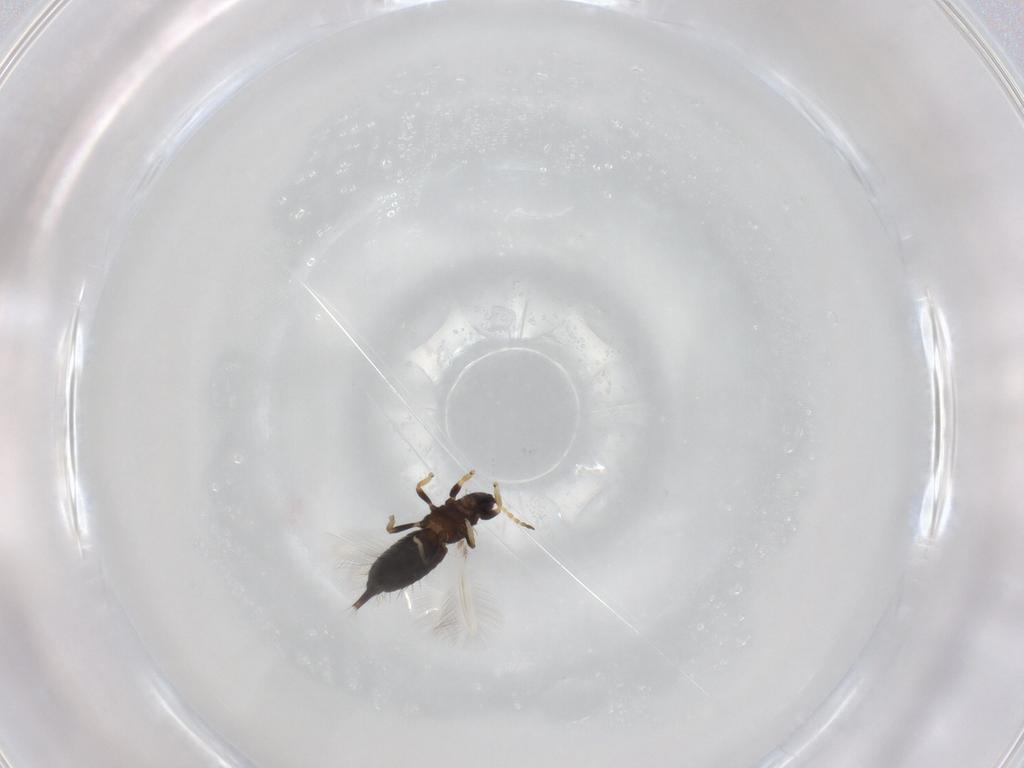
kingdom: Animalia
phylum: Arthropoda
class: Insecta
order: Thysanoptera
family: Phlaeothripidae
